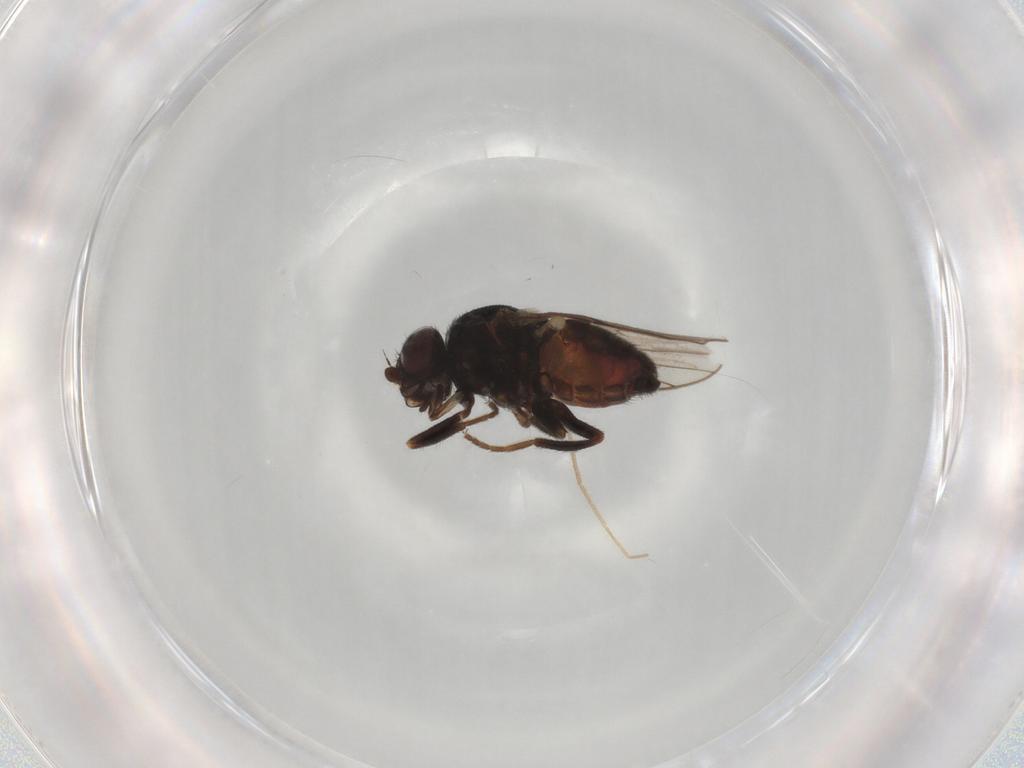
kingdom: Animalia
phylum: Arthropoda
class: Insecta
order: Diptera
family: Chloropidae
